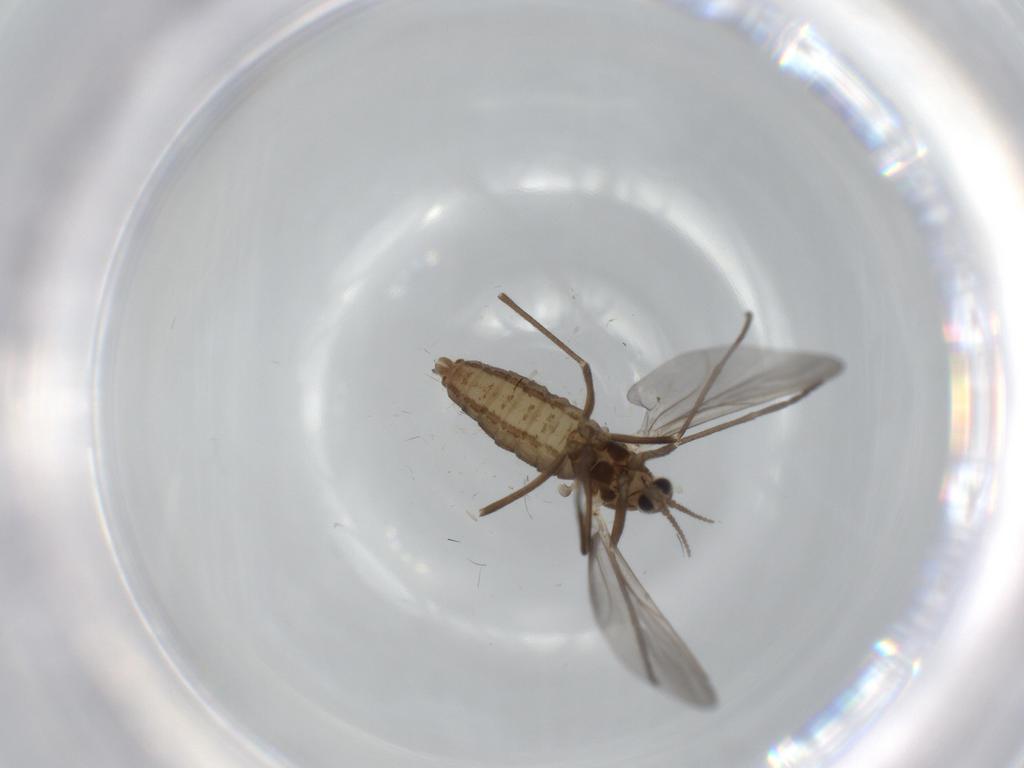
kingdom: Animalia
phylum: Arthropoda
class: Insecta
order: Diptera
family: Cecidomyiidae
